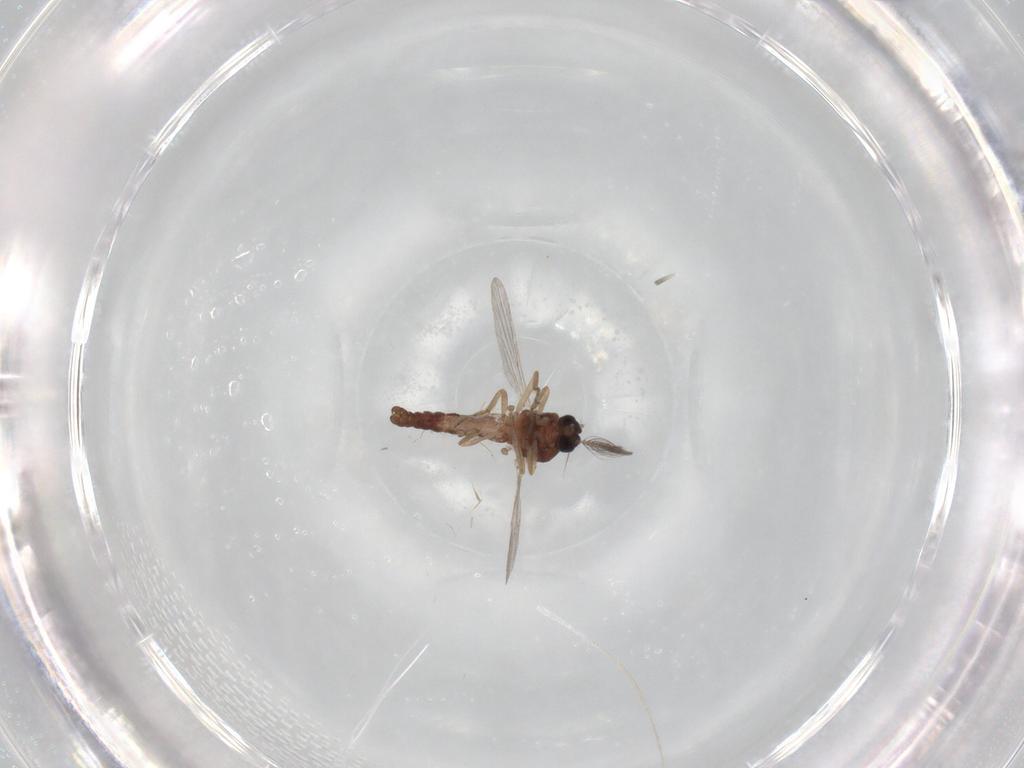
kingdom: Animalia
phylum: Arthropoda
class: Insecta
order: Diptera
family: Ceratopogonidae
